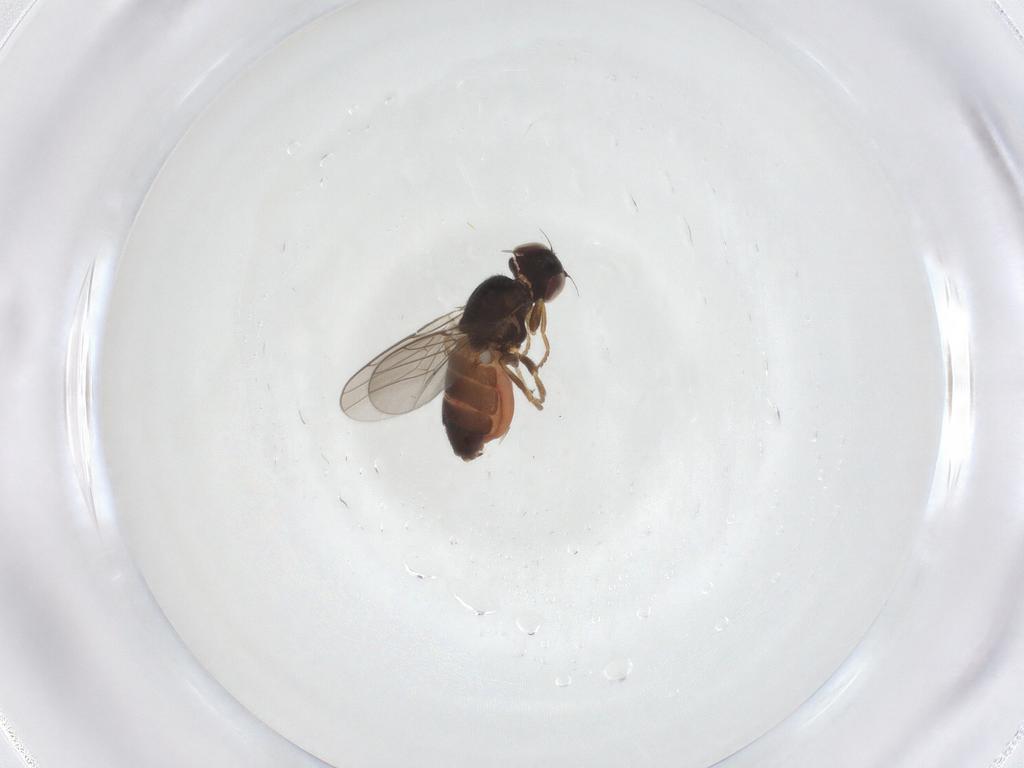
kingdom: Animalia
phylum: Arthropoda
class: Insecta
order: Diptera
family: Chloropidae
